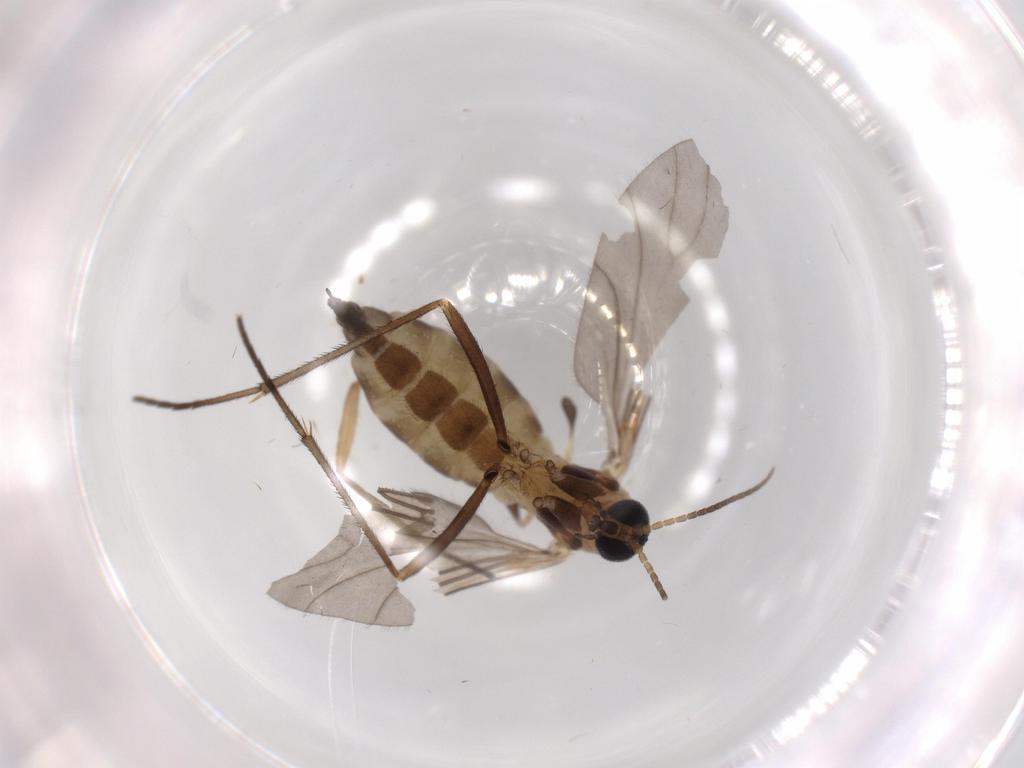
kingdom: Animalia
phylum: Arthropoda
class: Insecta
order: Diptera
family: Sciaridae
